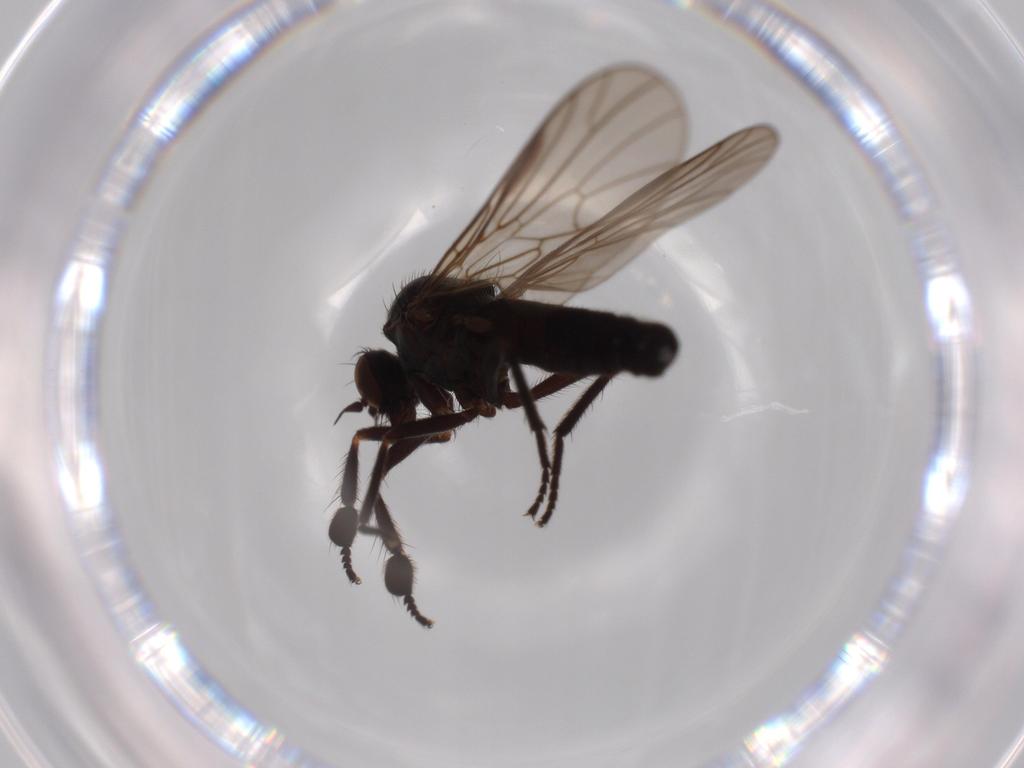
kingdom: Animalia
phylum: Arthropoda
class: Insecta
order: Diptera
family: Empididae
